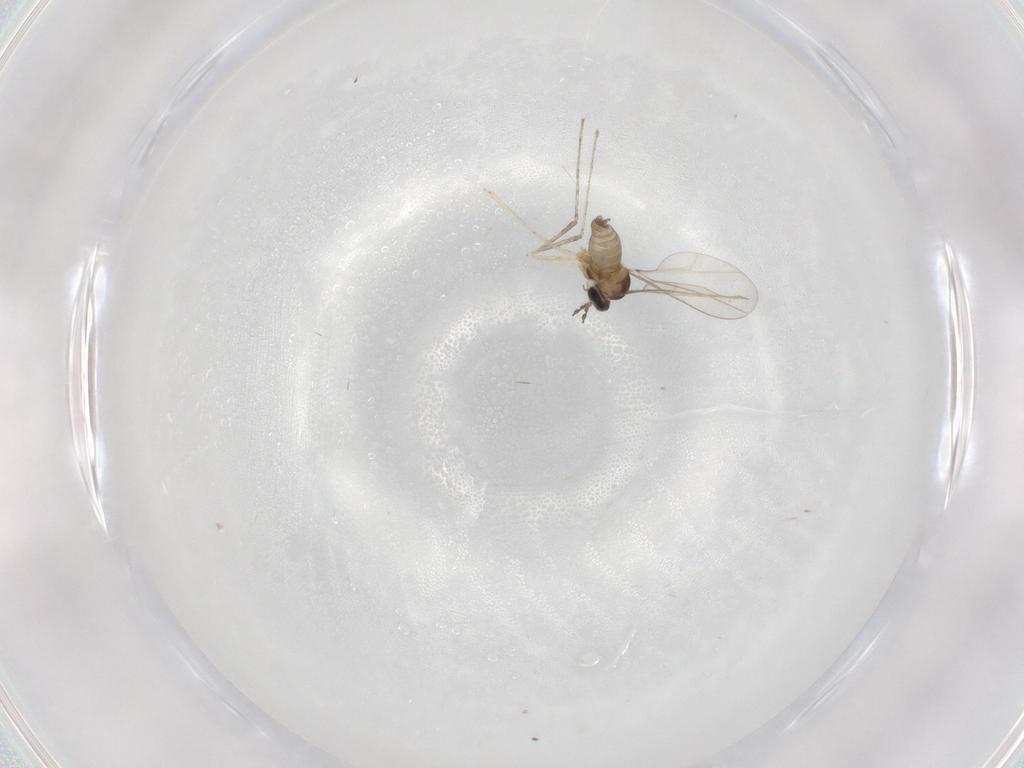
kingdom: Animalia
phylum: Arthropoda
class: Insecta
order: Diptera
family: Cecidomyiidae
